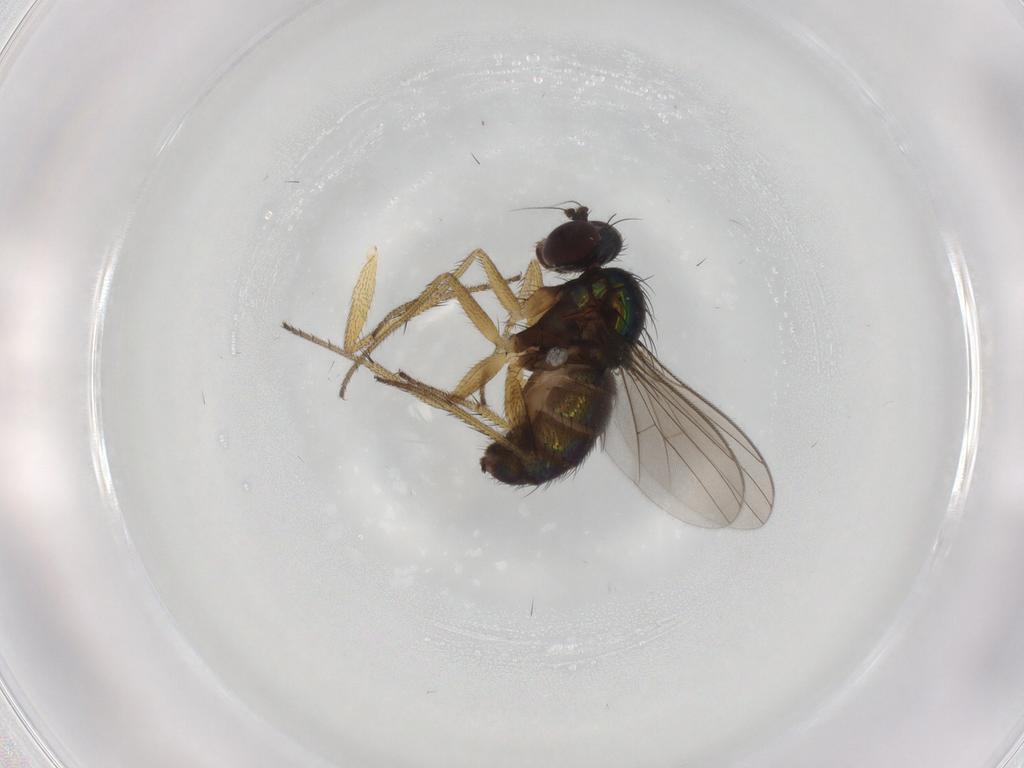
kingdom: Animalia
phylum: Arthropoda
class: Insecta
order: Diptera
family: Dolichopodidae
